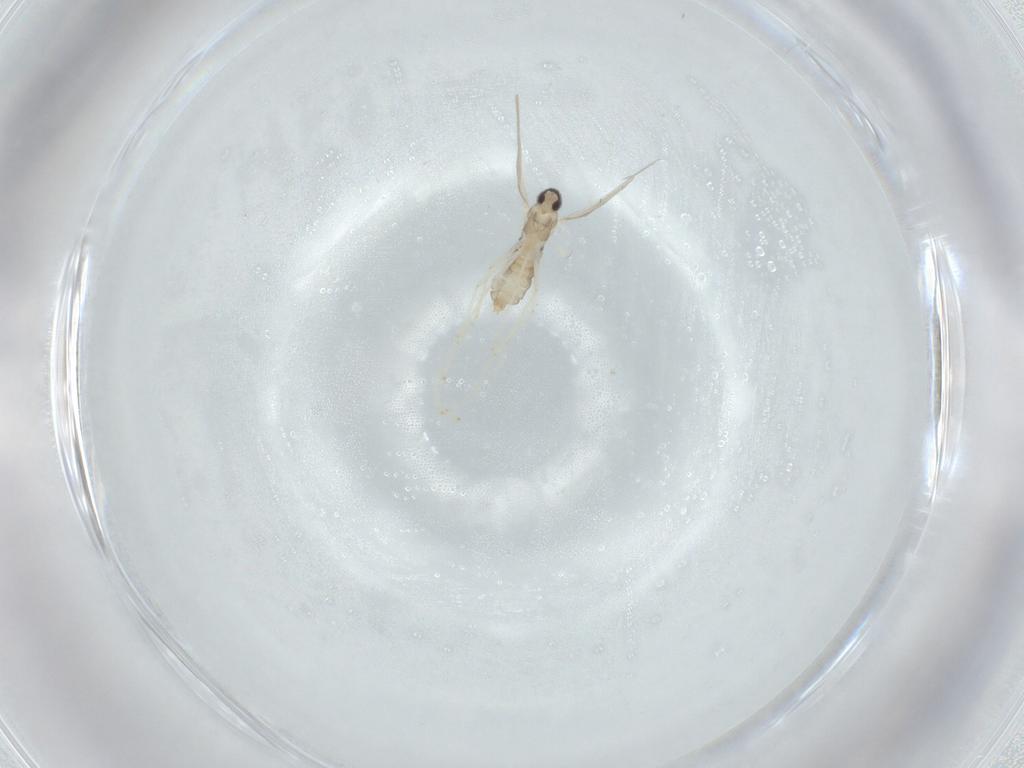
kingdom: Animalia
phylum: Arthropoda
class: Insecta
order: Diptera
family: Cecidomyiidae
